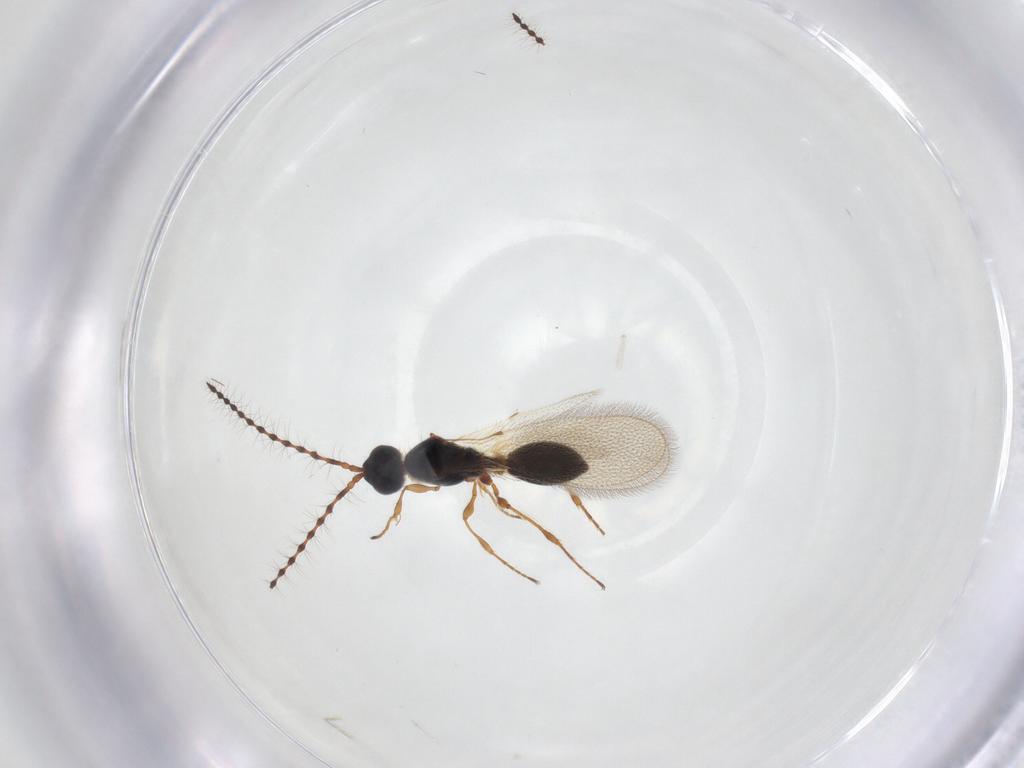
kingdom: Animalia
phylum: Arthropoda
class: Insecta
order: Hymenoptera
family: Diapriidae
